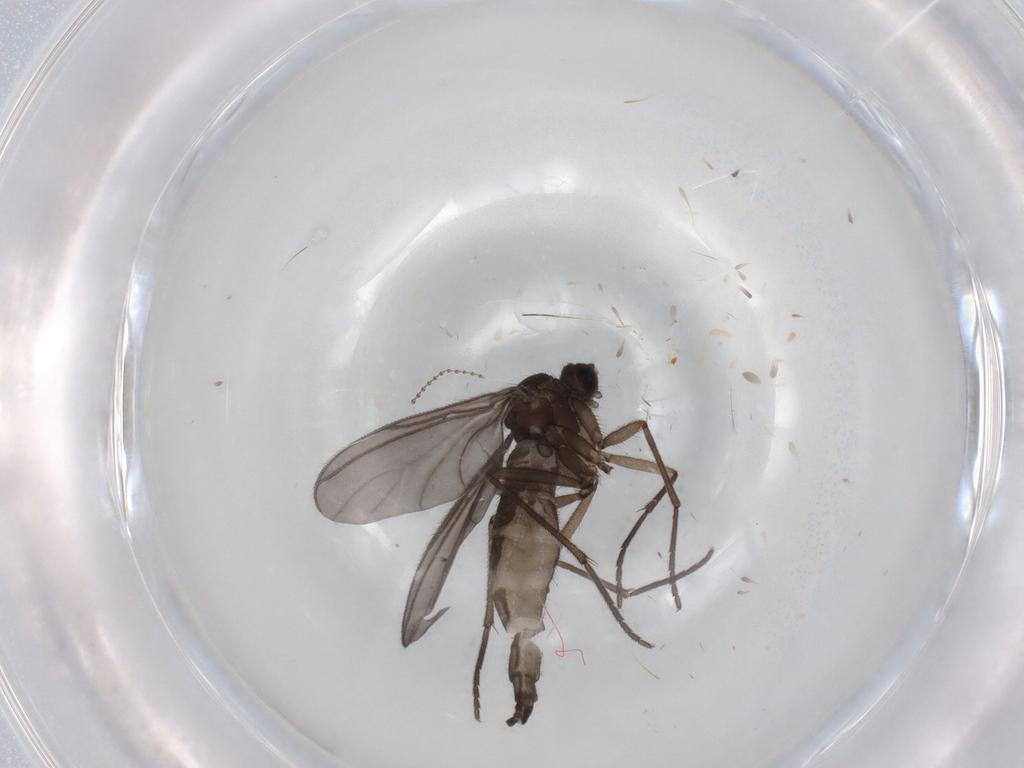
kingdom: Animalia
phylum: Arthropoda
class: Insecta
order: Diptera
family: Sciaridae
